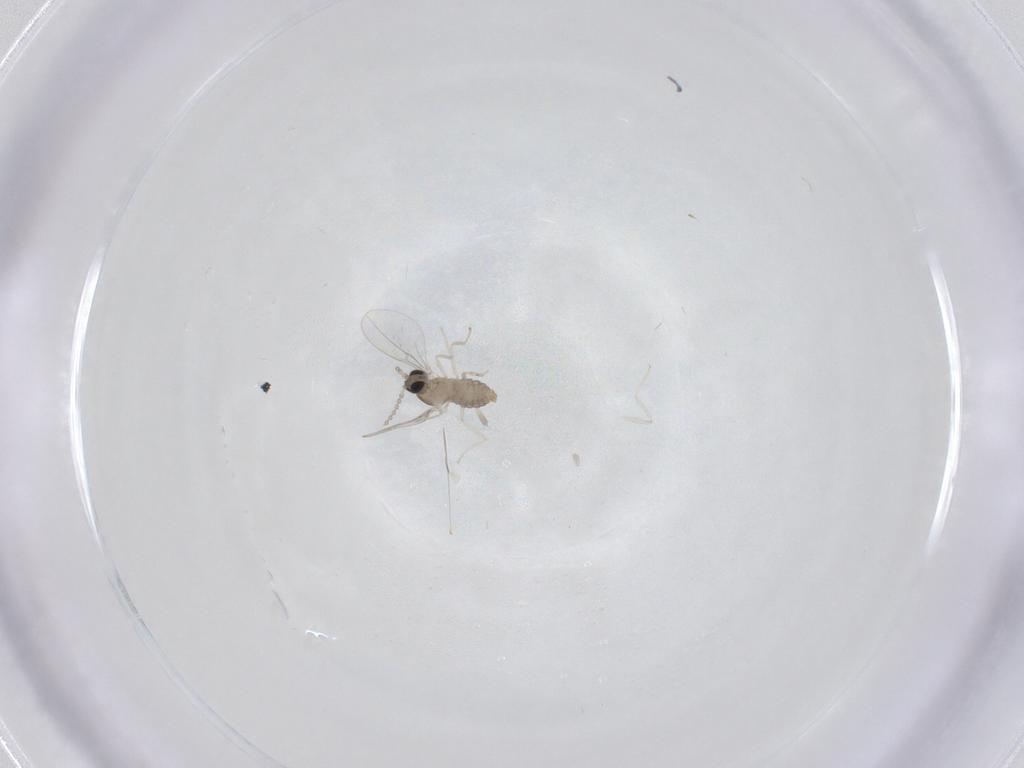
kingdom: Animalia
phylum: Arthropoda
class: Insecta
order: Diptera
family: Cecidomyiidae
